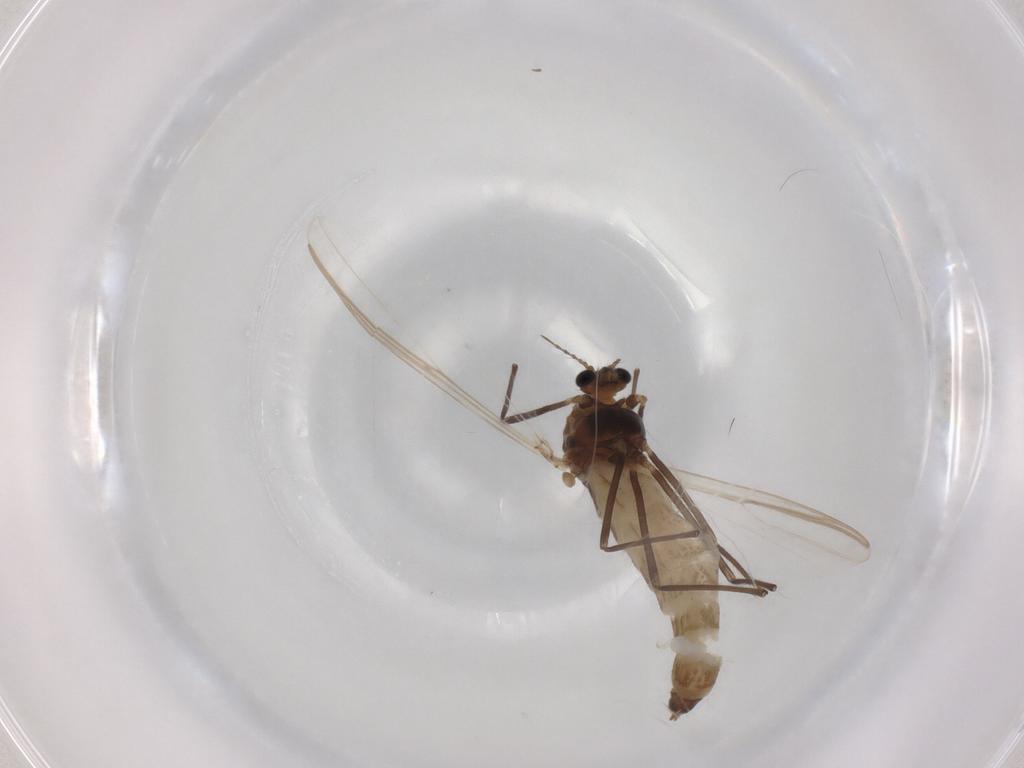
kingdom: Animalia
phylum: Arthropoda
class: Insecta
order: Diptera
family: Chironomidae
